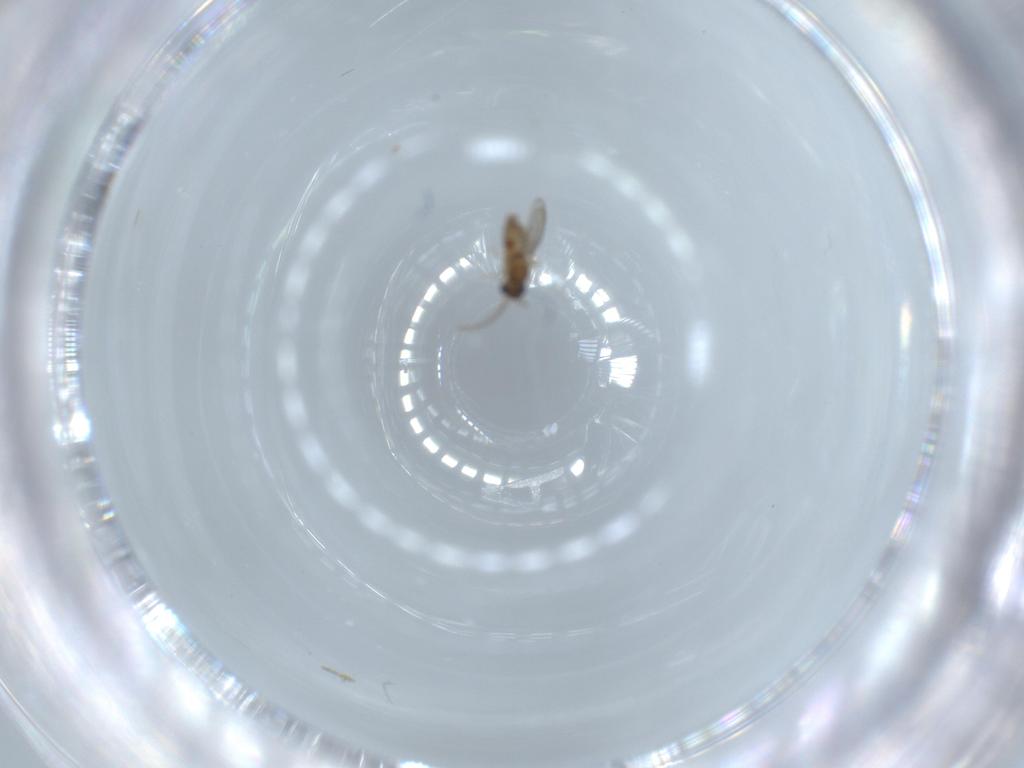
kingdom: Animalia
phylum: Arthropoda
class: Insecta
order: Diptera
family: Cecidomyiidae
